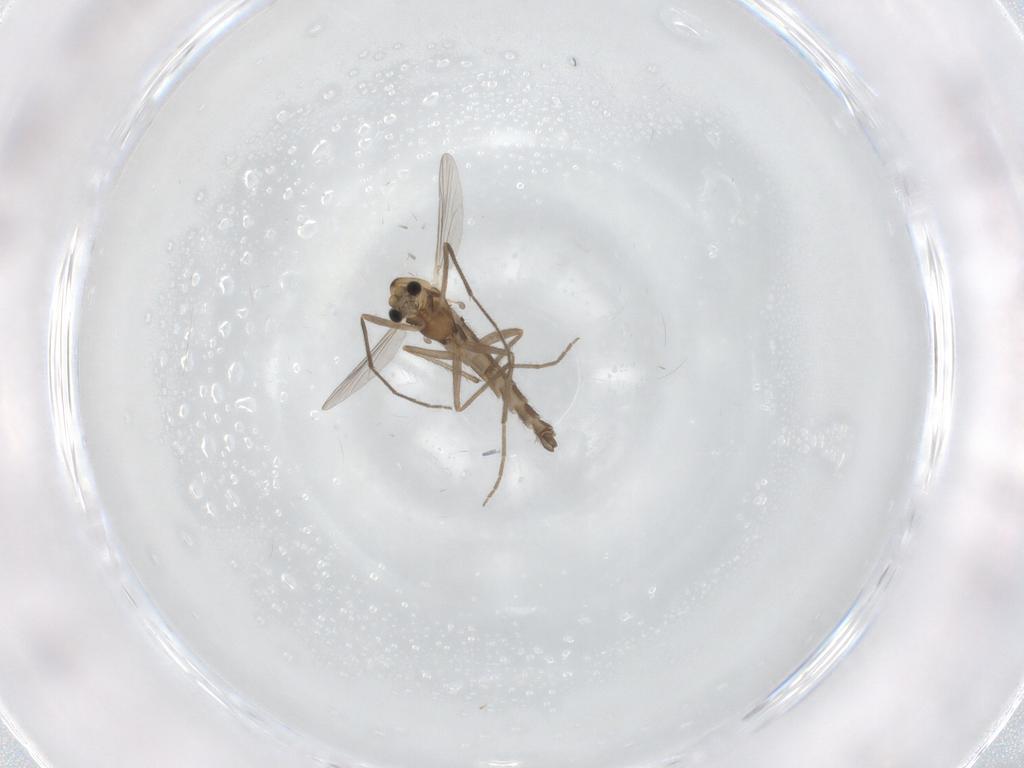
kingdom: Animalia
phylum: Arthropoda
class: Insecta
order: Diptera
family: Chironomidae
